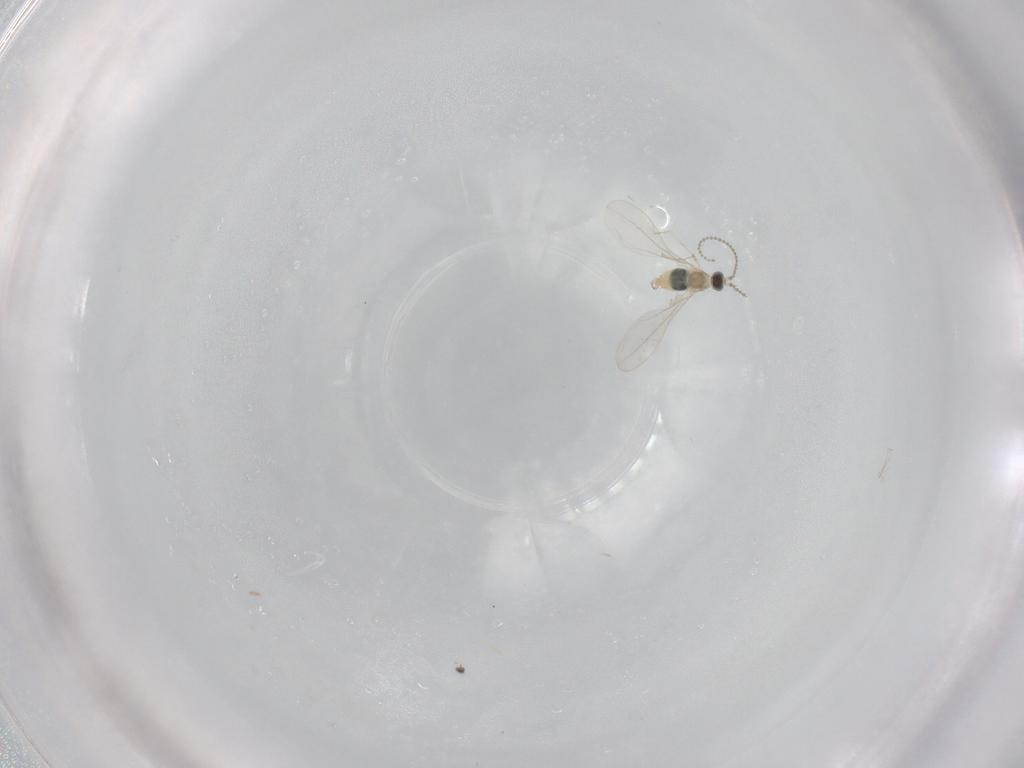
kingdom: Animalia
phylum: Arthropoda
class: Insecta
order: Diptera
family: Cecidomyiidae
